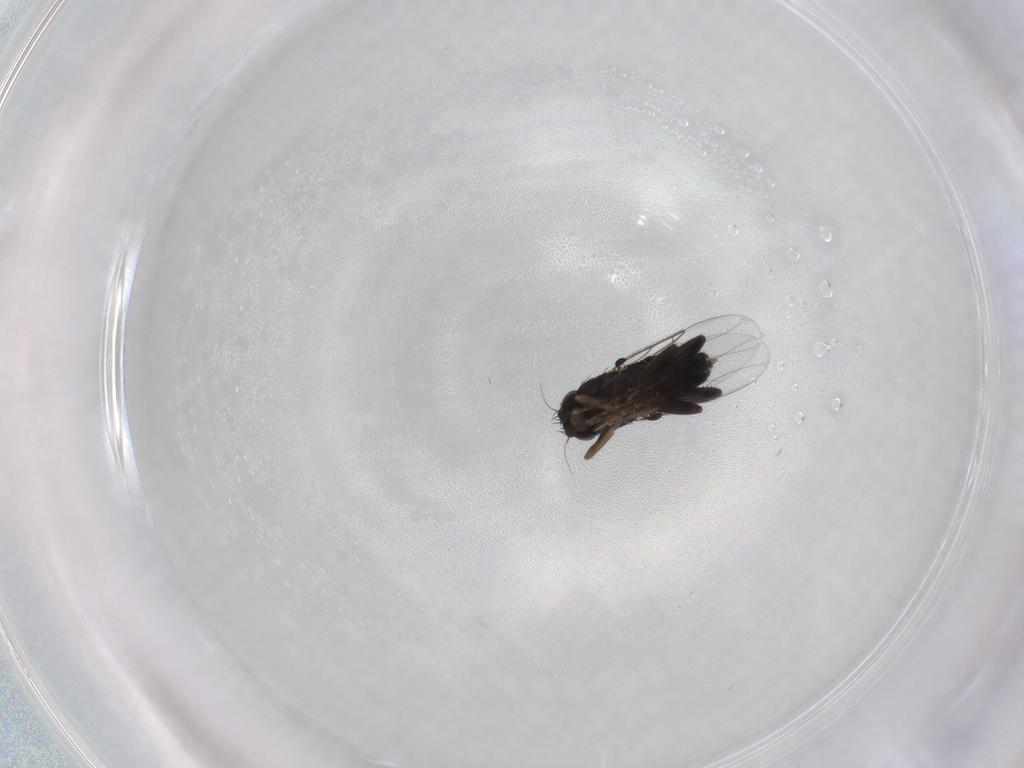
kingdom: Animalia
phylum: Arthropoda
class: Insecta
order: Diptera
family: Phoridae
